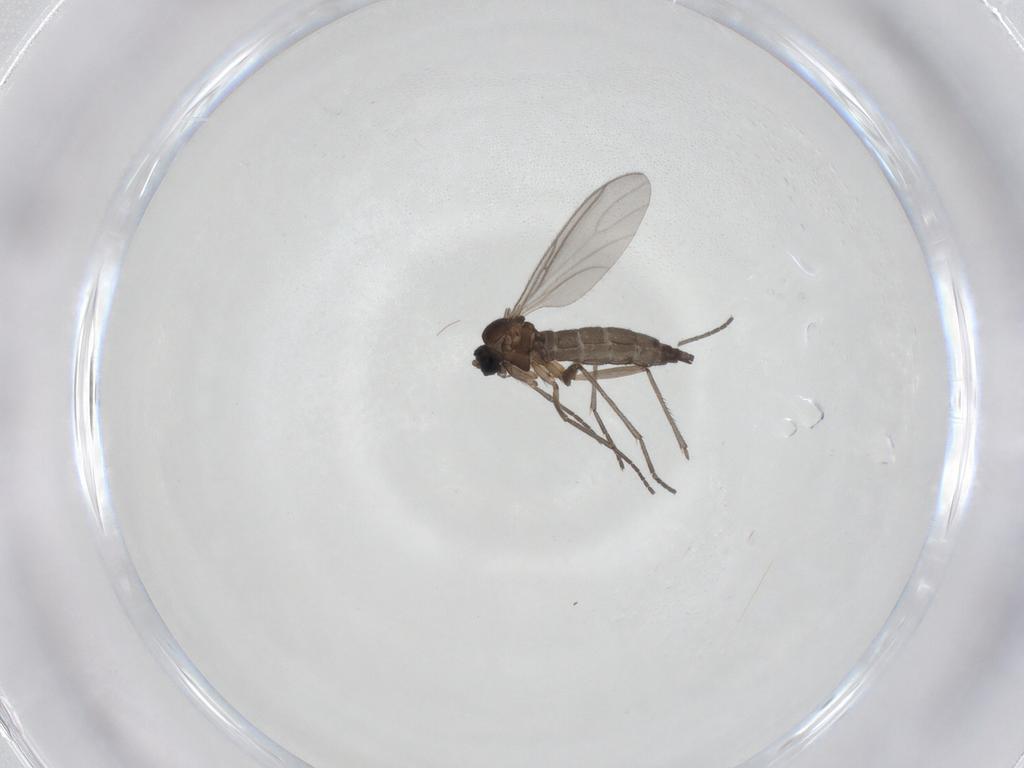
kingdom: Animalia
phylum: Arthropoda
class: Insecta
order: Diptera
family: Sciaridae
